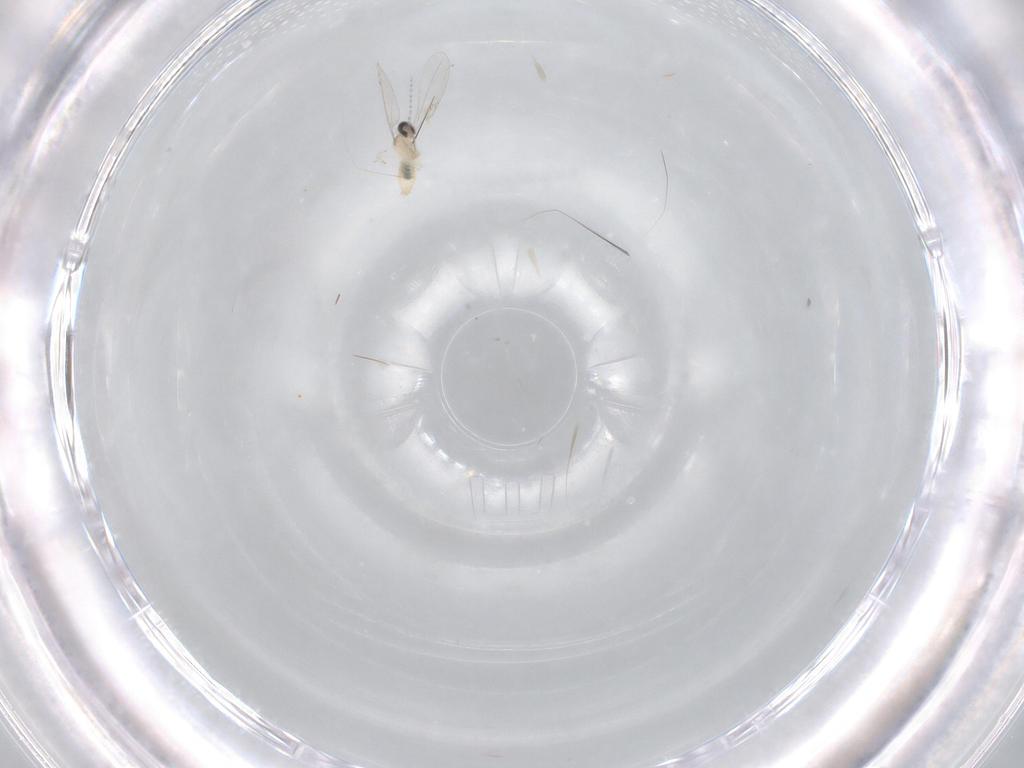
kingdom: Animalia
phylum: Arthropoda
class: Insecta
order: Diptera
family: Cecidomyiidae
